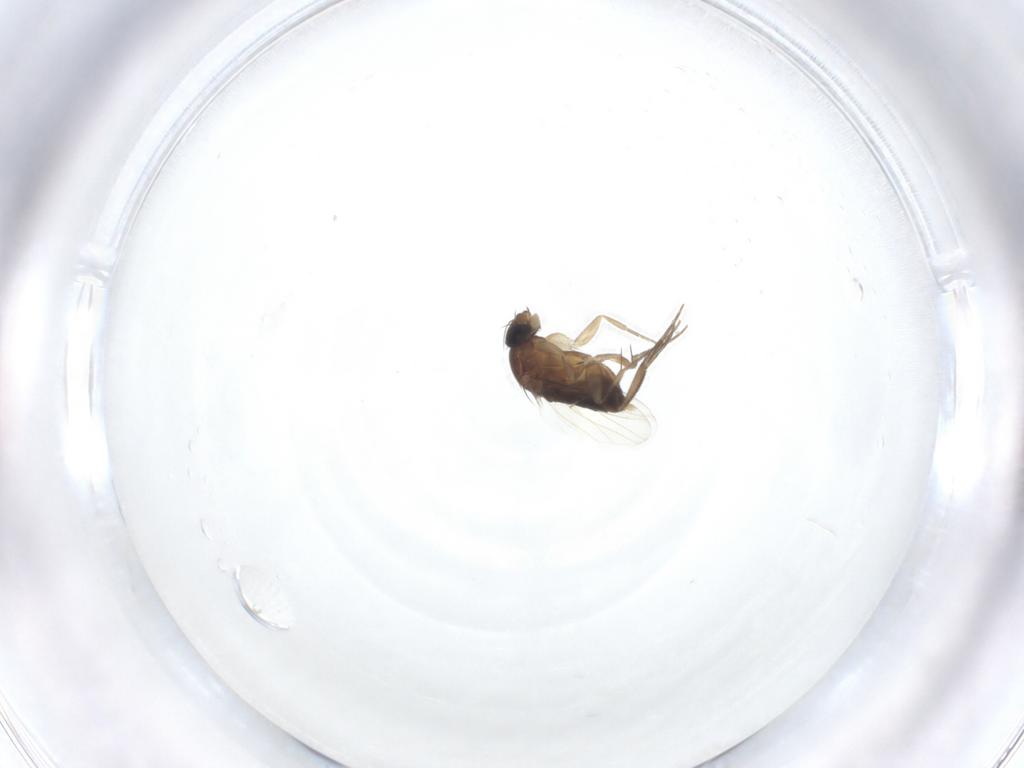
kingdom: Animalia
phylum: Arthropoda
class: Insecta
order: Diptera
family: Phoridae
